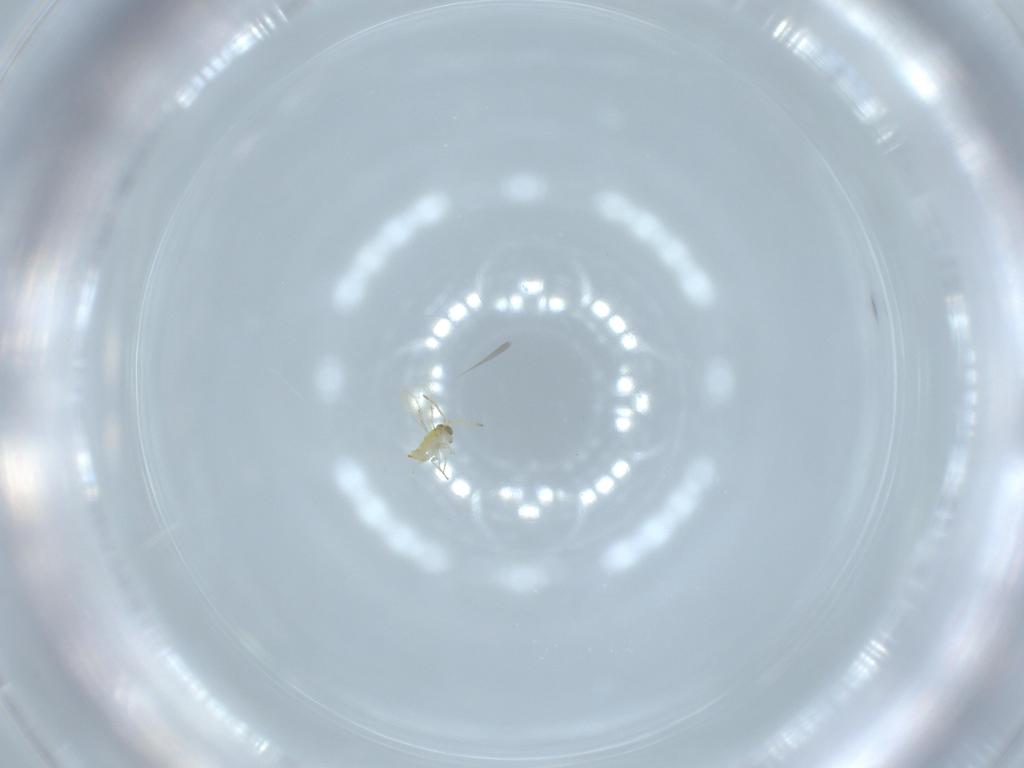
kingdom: Animalia
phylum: Arthropoda
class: Insecta
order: Hymenoptera
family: Aphelinidae
